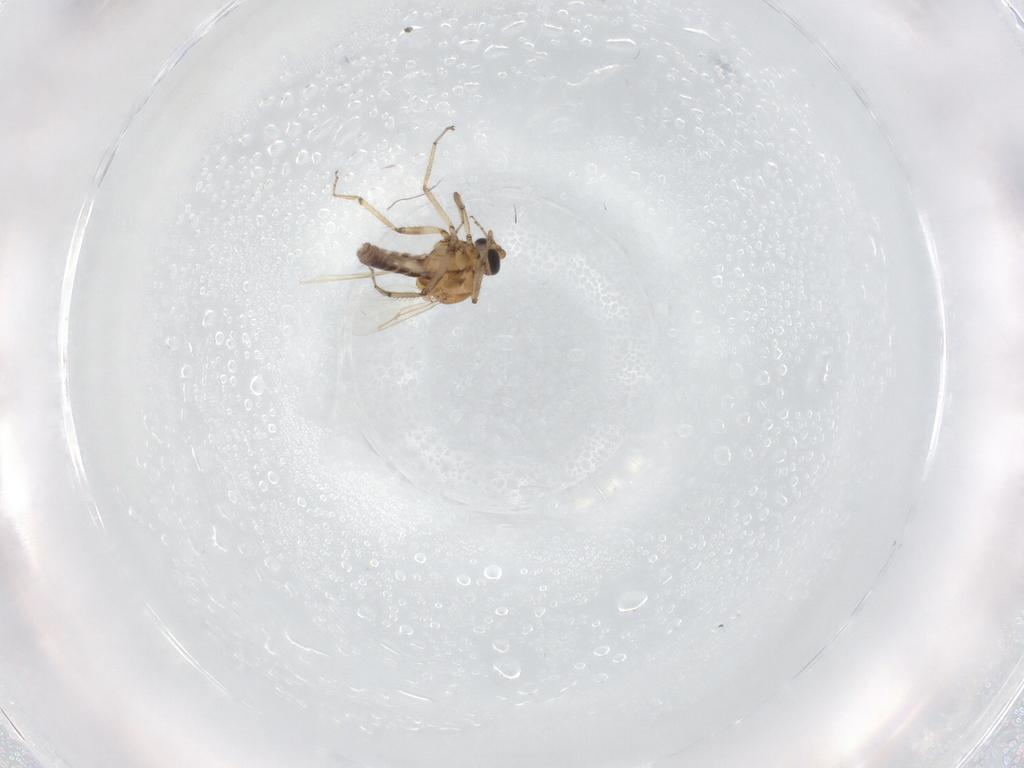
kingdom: Animalia
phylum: Arthropoda
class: Insecta
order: Diptera
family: Ceratopogonidae
